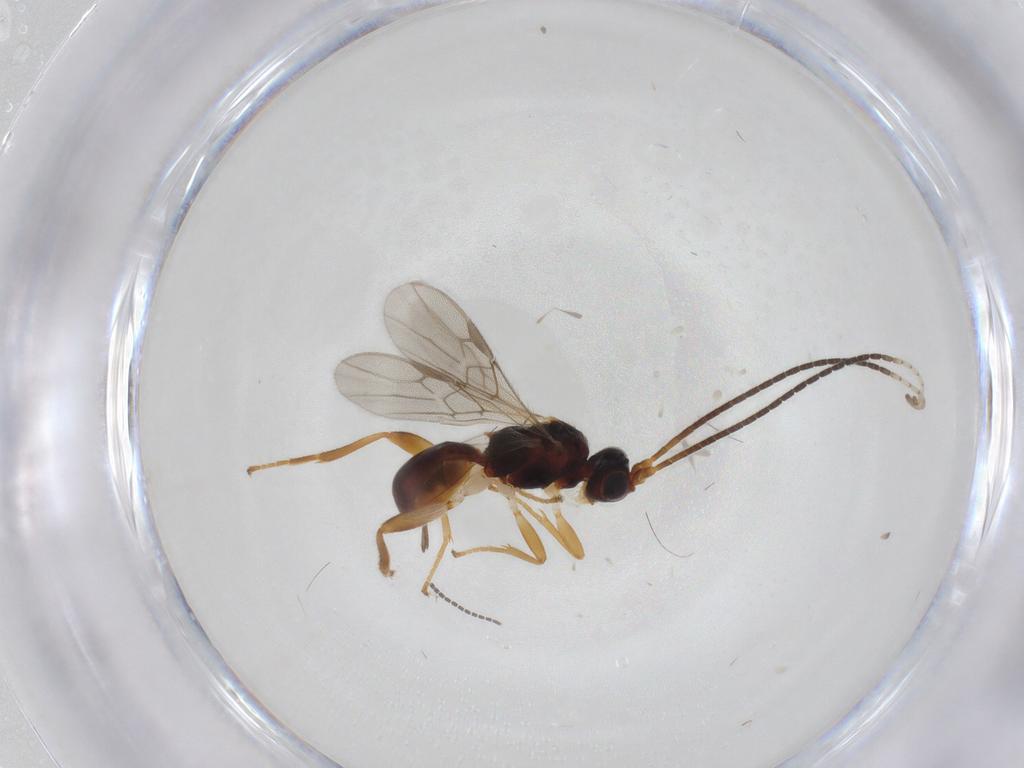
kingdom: Animalia
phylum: Arthropoda
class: Insecta
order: Hymenoptera
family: Braconidae
